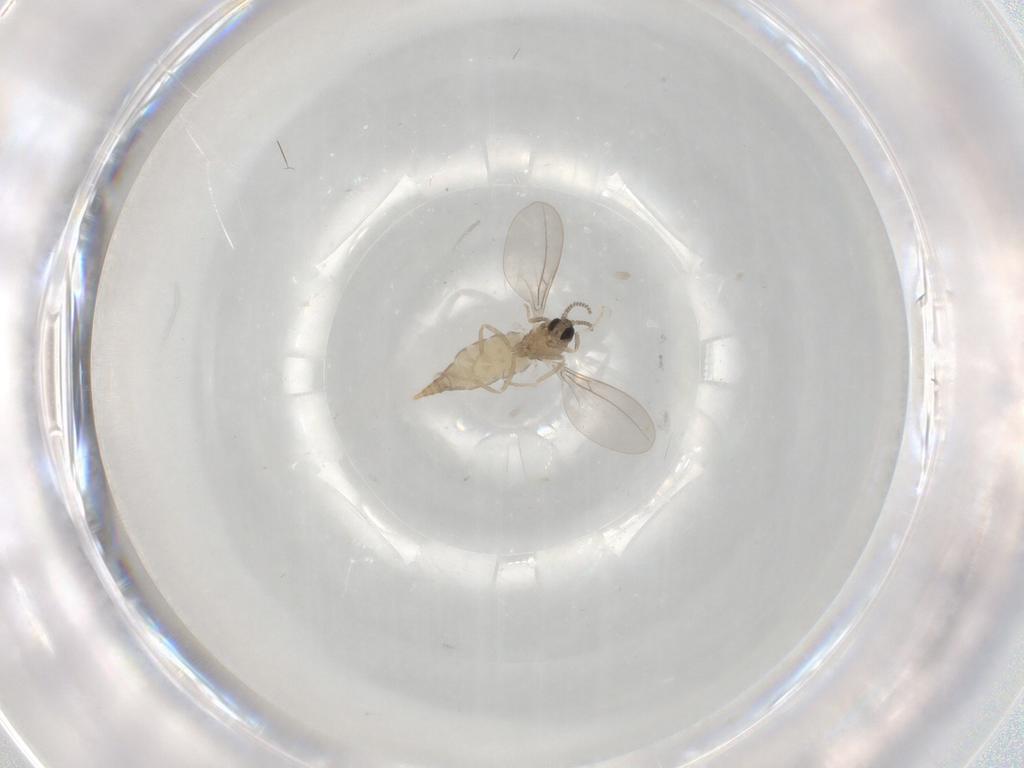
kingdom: Animalia
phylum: Arthropoda
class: Insecta
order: Diptera
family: Cecidomyiidae
